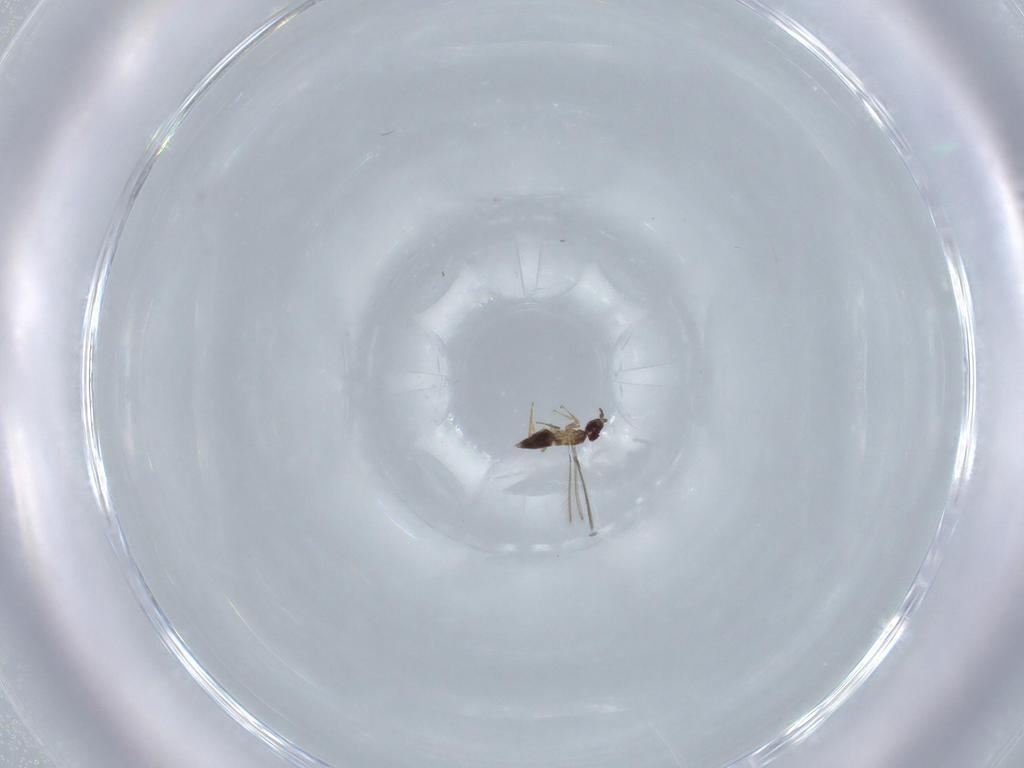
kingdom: Animalia
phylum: Arthropoda
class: Insecta
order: Hymenoptera
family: Mymaridae
